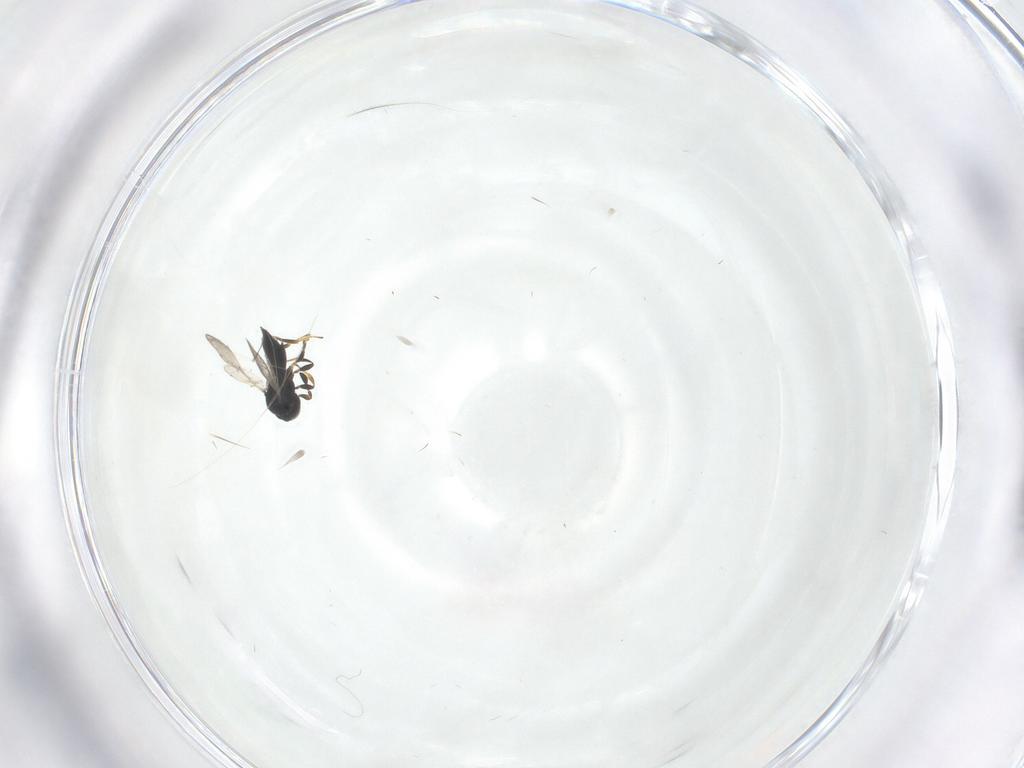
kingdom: Animalia
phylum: Arthropoda
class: Insecta
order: Hymenoptera
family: Platygastridae
